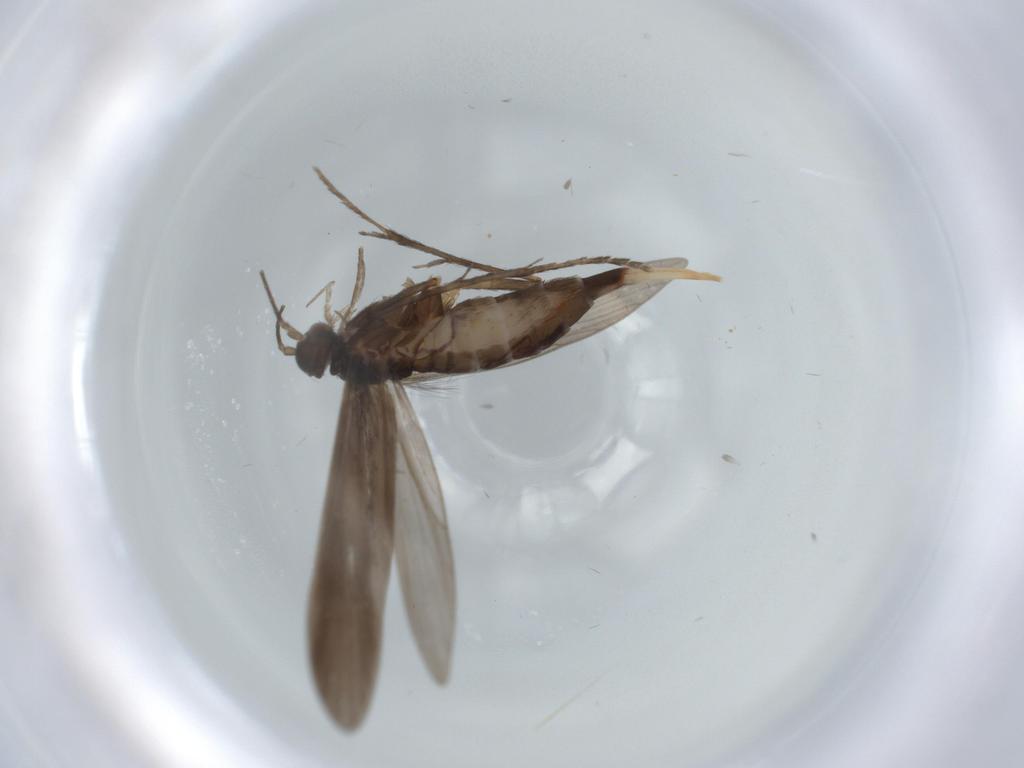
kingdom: Animalia
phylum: Arthropoda
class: Insecta
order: Trichoptera
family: Xiphocentronidae
